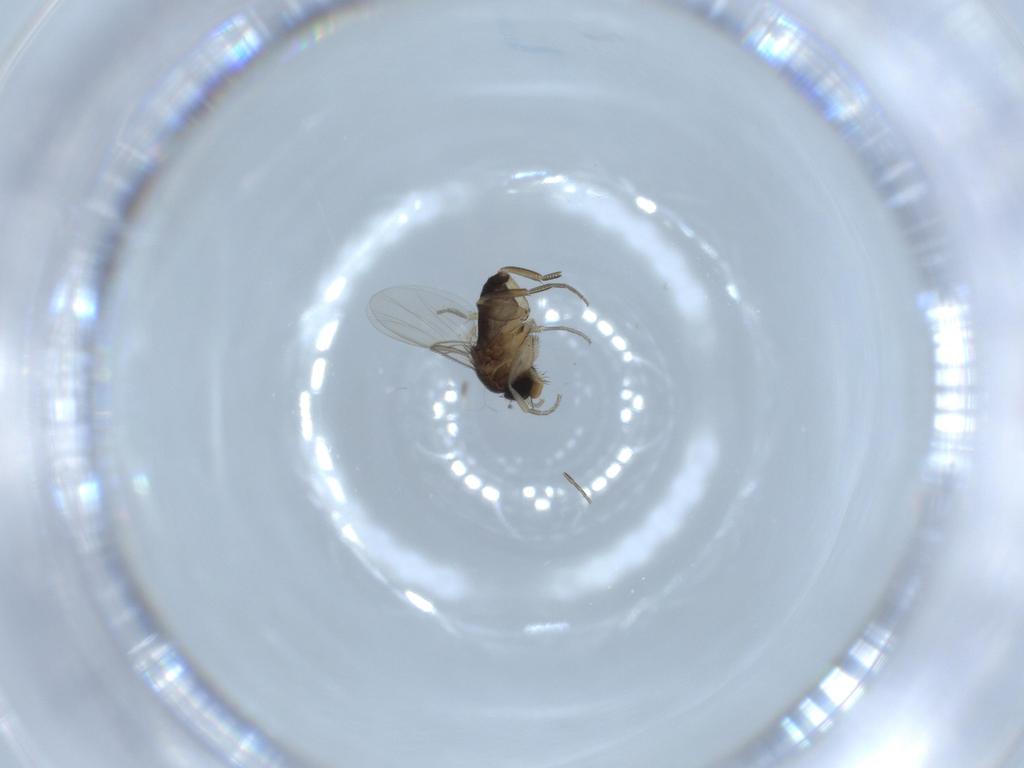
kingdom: Animalia
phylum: Arthropoda
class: Insecta
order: Diptera
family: Phoridae
